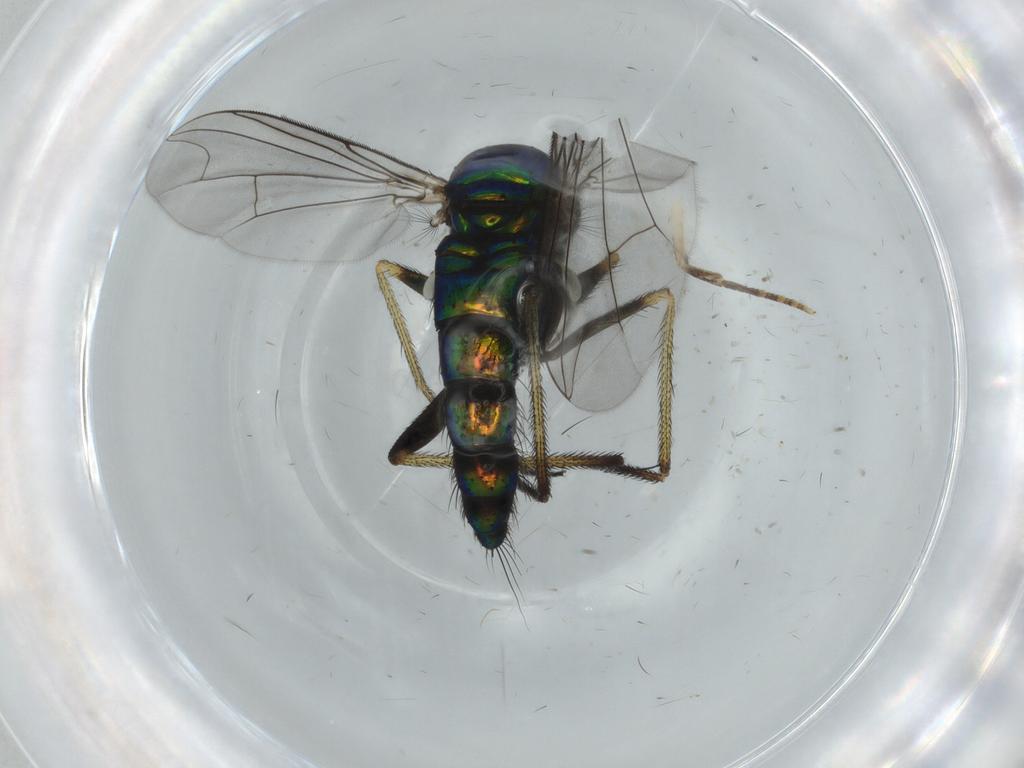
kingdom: Animalia
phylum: Arthropoda
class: Insecta
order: Diptera
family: Dolichopodidae
